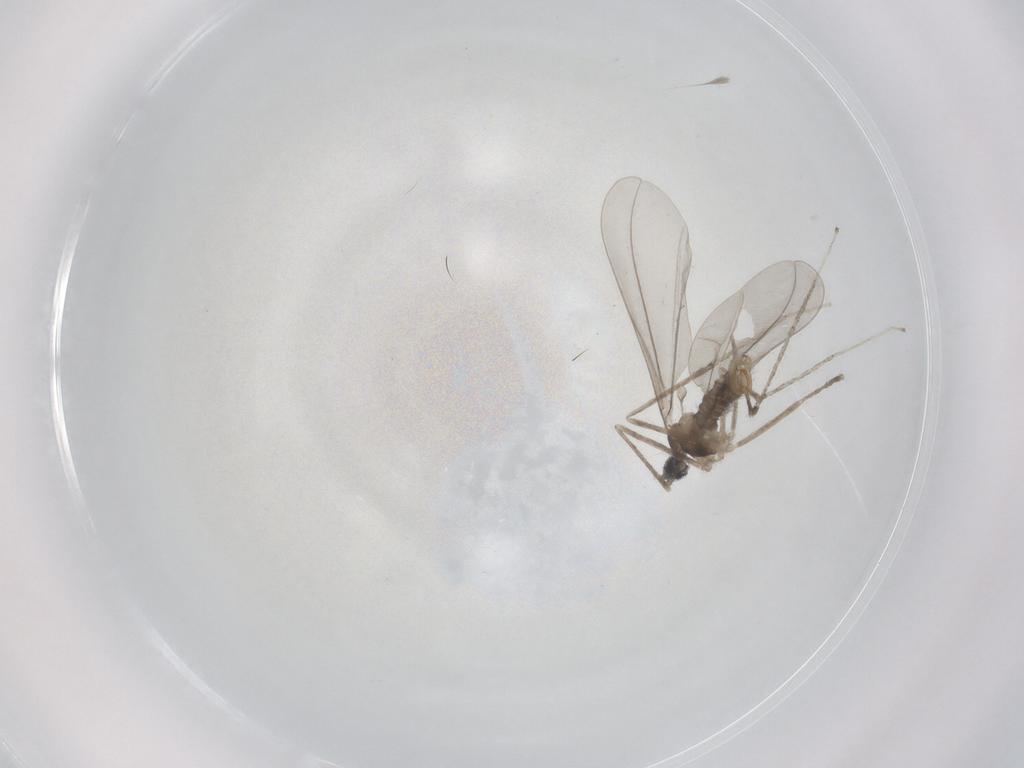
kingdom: Animalia
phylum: Arthropoda
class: Insecta
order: Diptera
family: Cecidomyiidae
